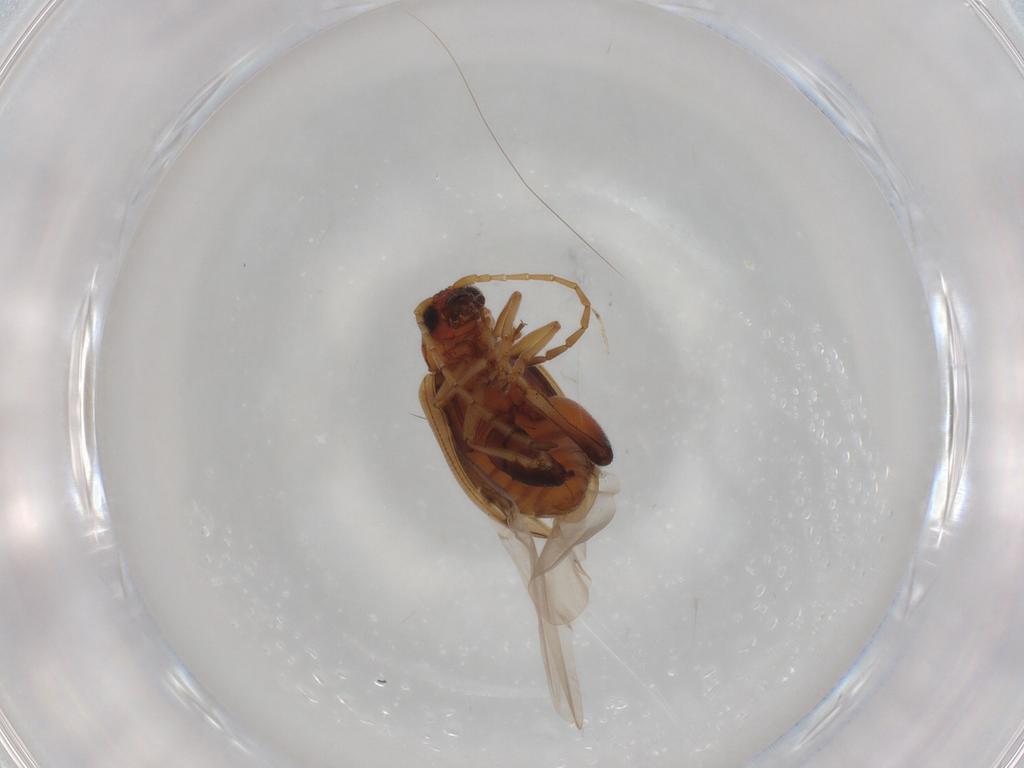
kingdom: Animalia
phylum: Arthropoda
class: Insecta
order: Coleoptera
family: Chrysomelidae
